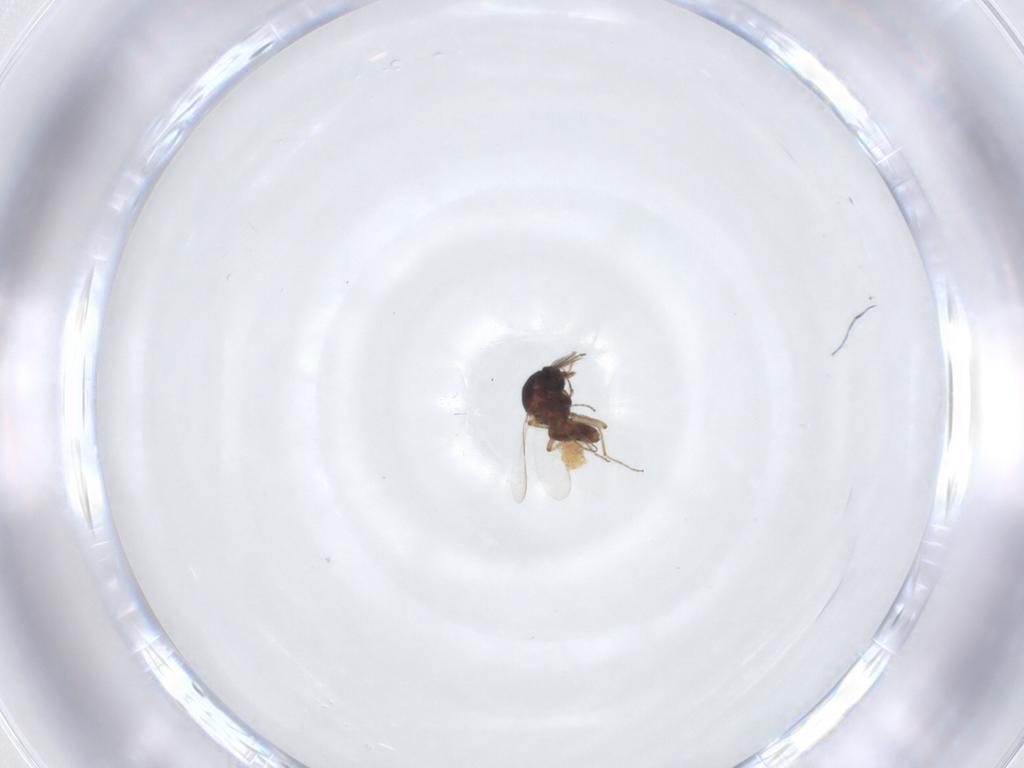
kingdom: Animalia
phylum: Arthropoda
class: Insecta
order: Diptera
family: Ceratopogonidae
